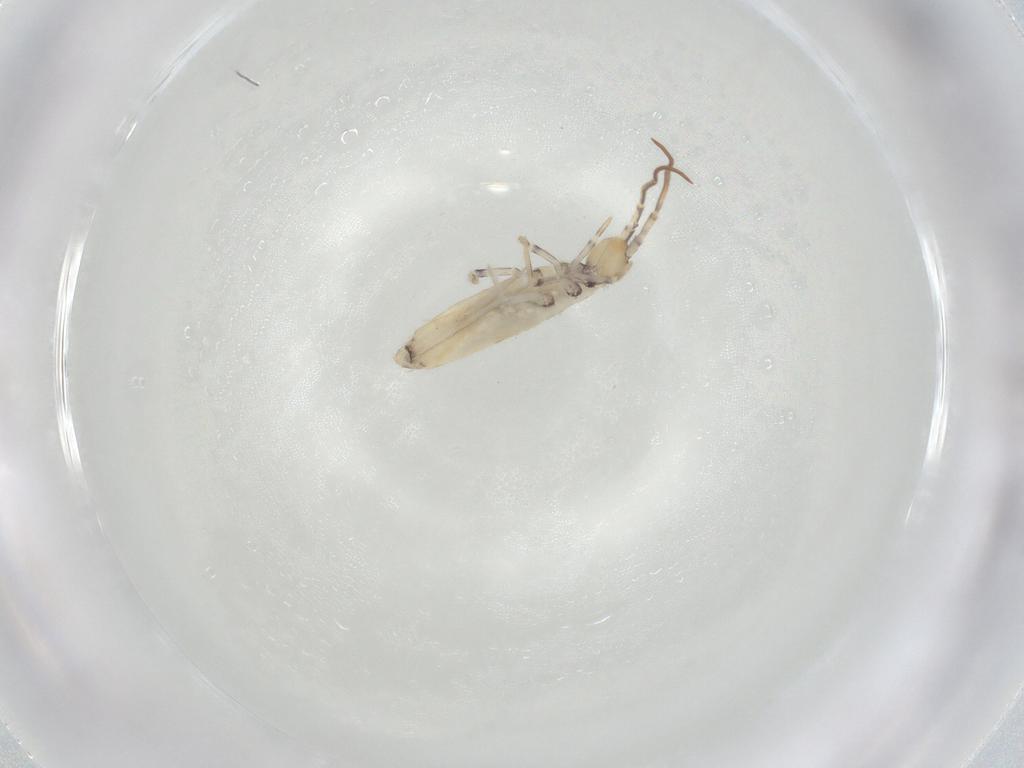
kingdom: Animalia
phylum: Arthropoda
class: Collembola
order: Entomobryomorpha
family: Entomobryidae
